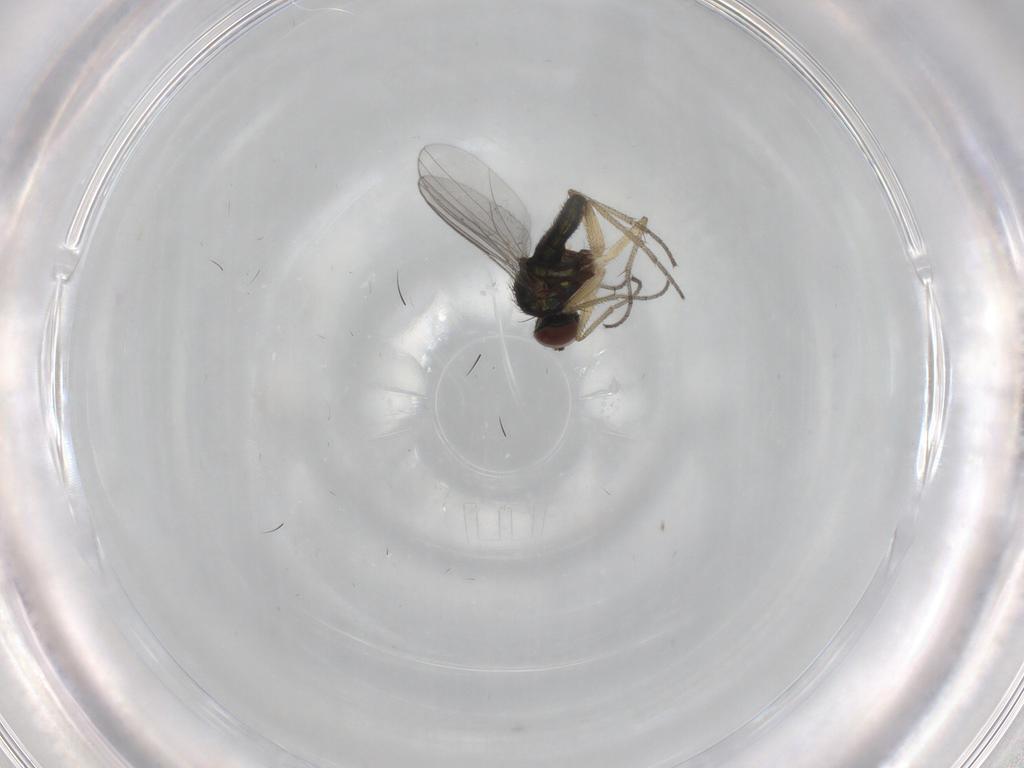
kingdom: Animalia
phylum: Arthropoda
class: Insecta
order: Diptera
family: Dolichopodidae
